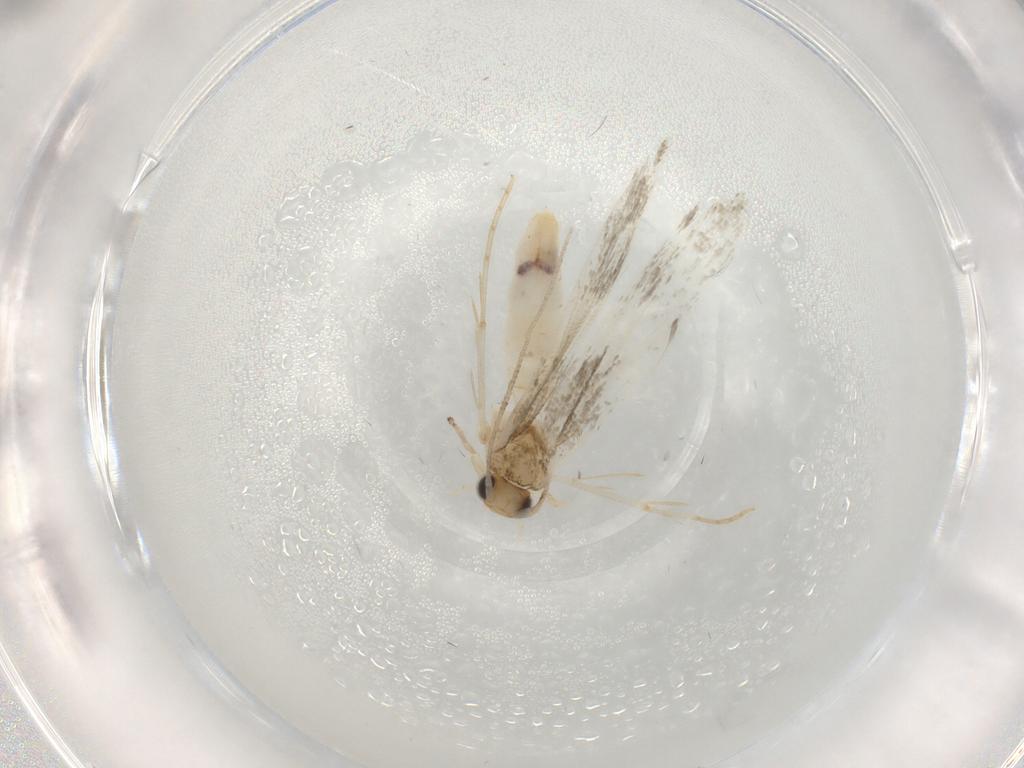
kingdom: Animalia
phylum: Arthropoda
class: Insecta
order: Lepidoptera
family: Tineidae
